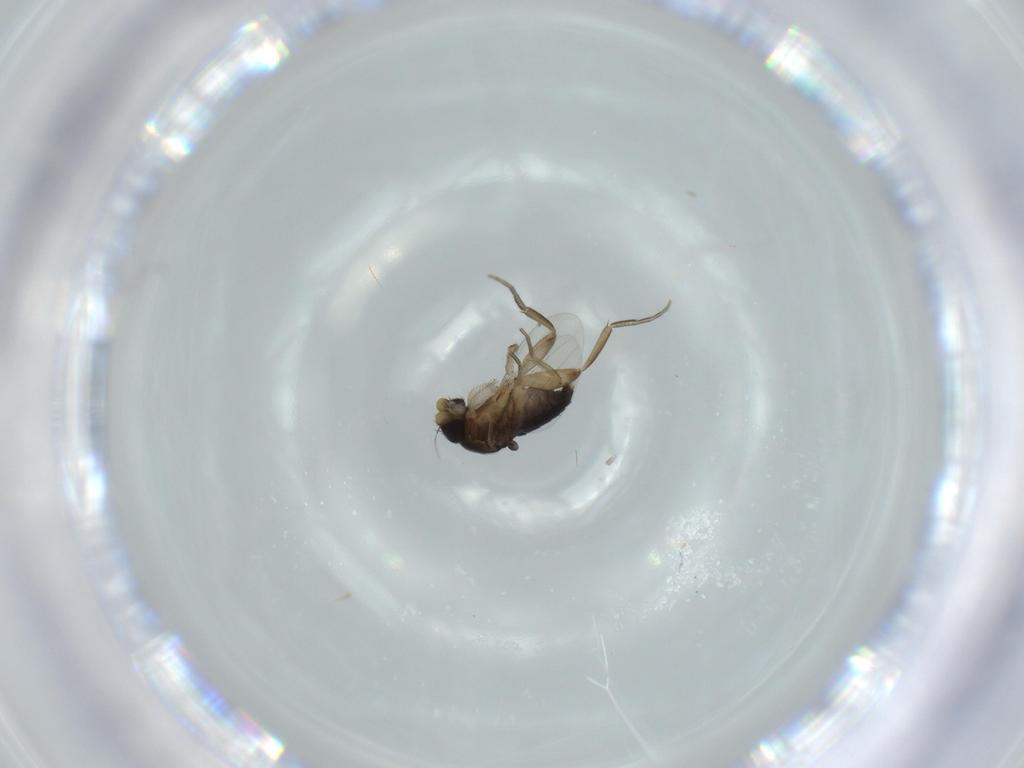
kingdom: Animalia
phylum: Arthropoda
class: Insecta
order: Diptera
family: Phoridae
